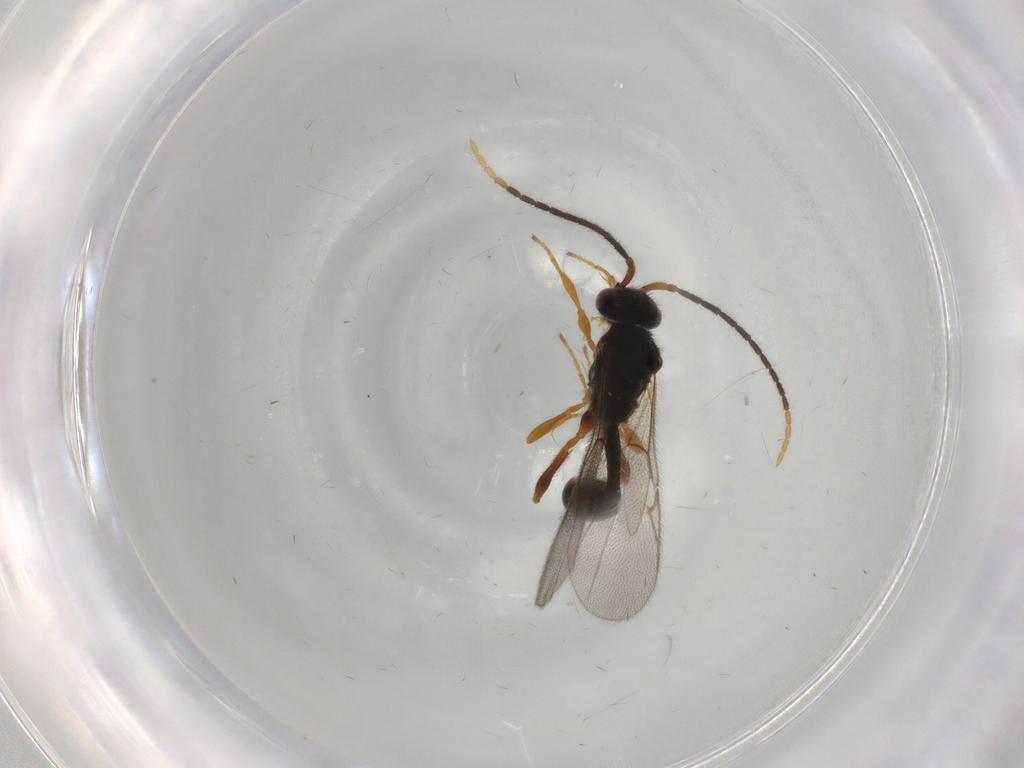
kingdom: Animalia
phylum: Arthropoda
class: Insecta
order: Hymenoptera
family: Diapriidae
